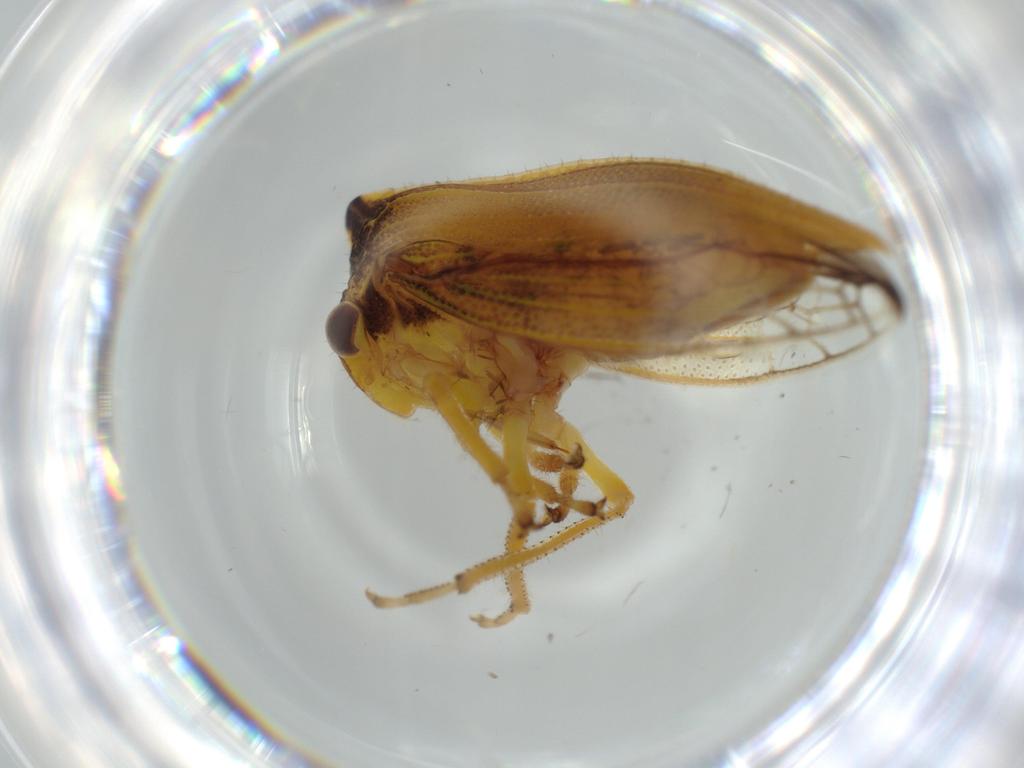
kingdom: Animalia
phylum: Arthropoda
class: Insecta
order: Hemiptera
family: Membracidae
